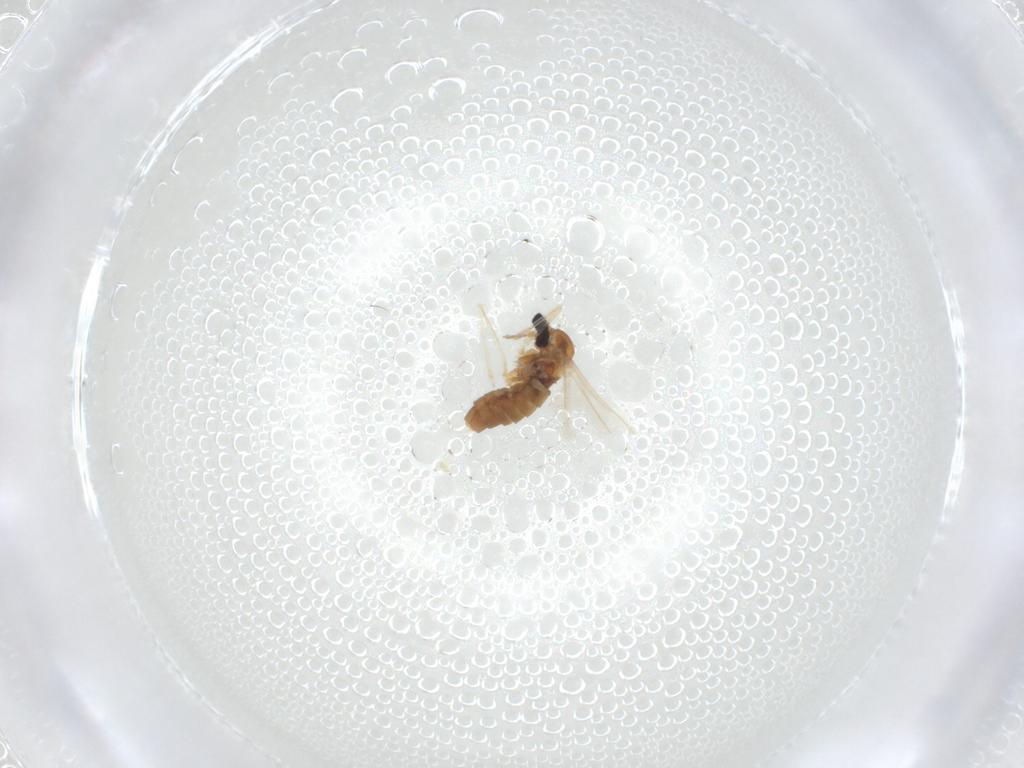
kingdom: Animalia
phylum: Arthropoda
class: Insecta
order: Diptera
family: Cecidomyiidae
